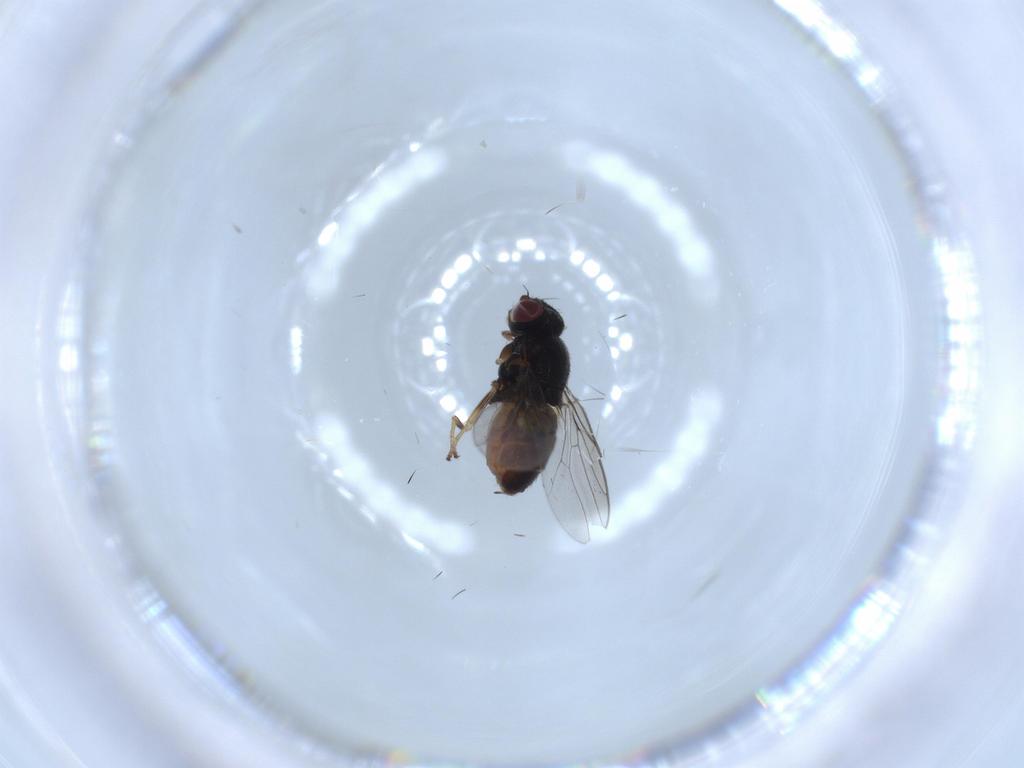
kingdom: Animalia
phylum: Arthropoda
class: Insecta
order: Diptera
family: Chloropidae
